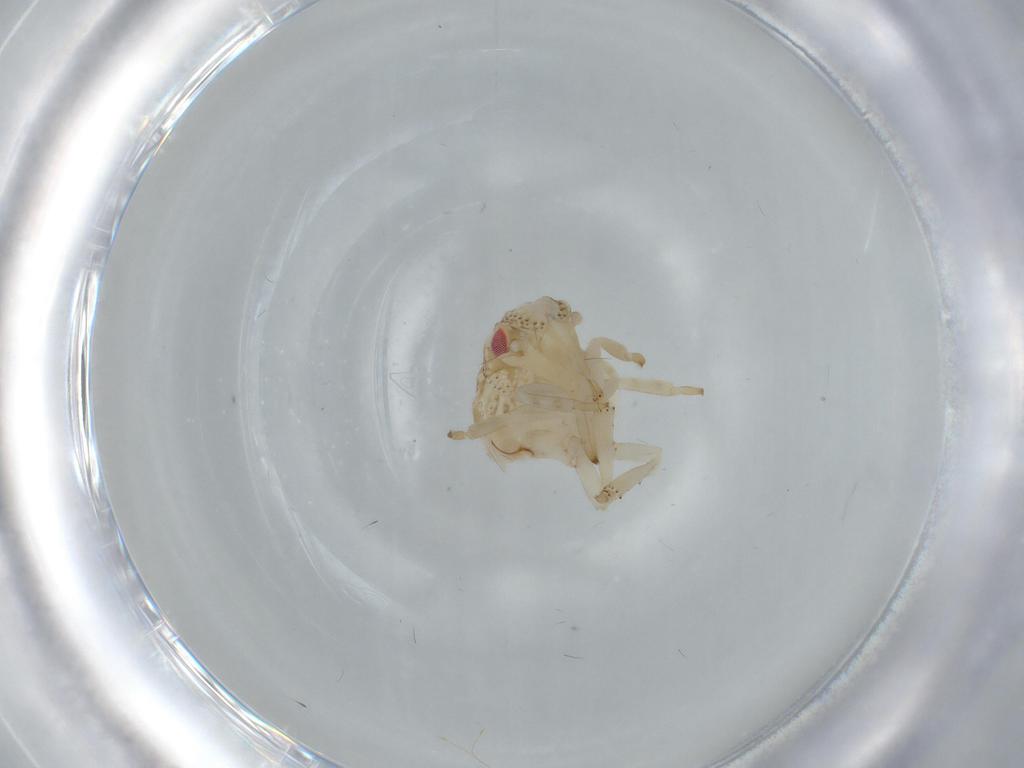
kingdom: Animalia
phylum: Arthropoda
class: Insecta
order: Hemiptera
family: Acanaloniidae
